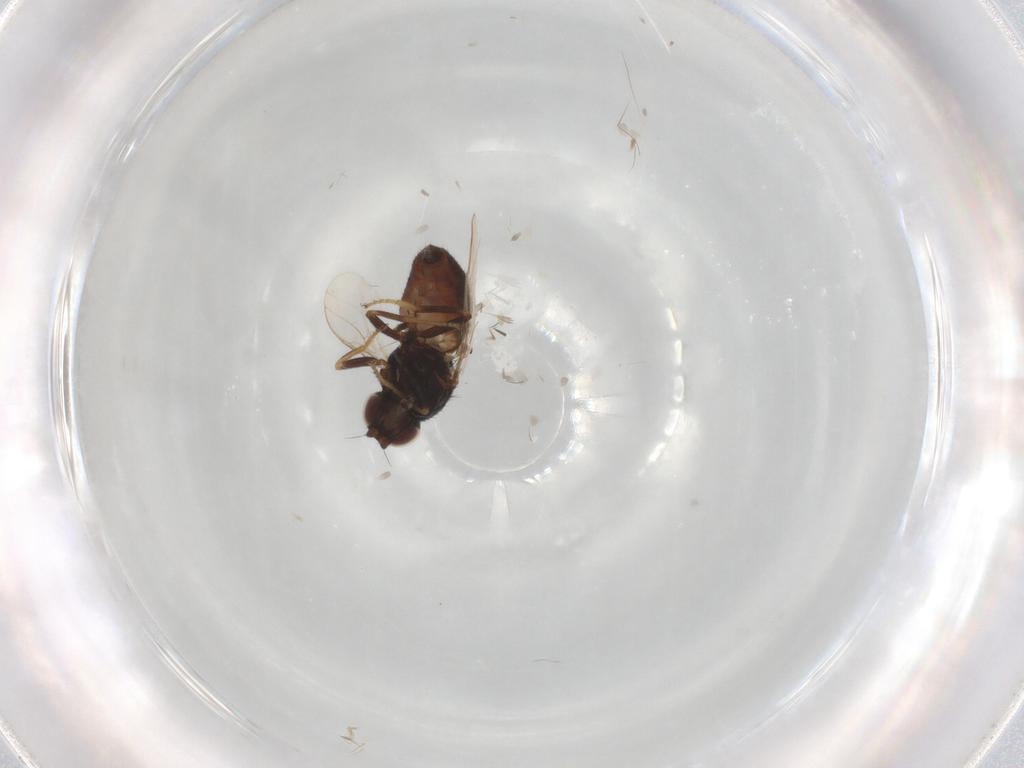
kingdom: Animalia
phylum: Arthropoda
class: Insecta
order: Diptera
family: Chloropidae
